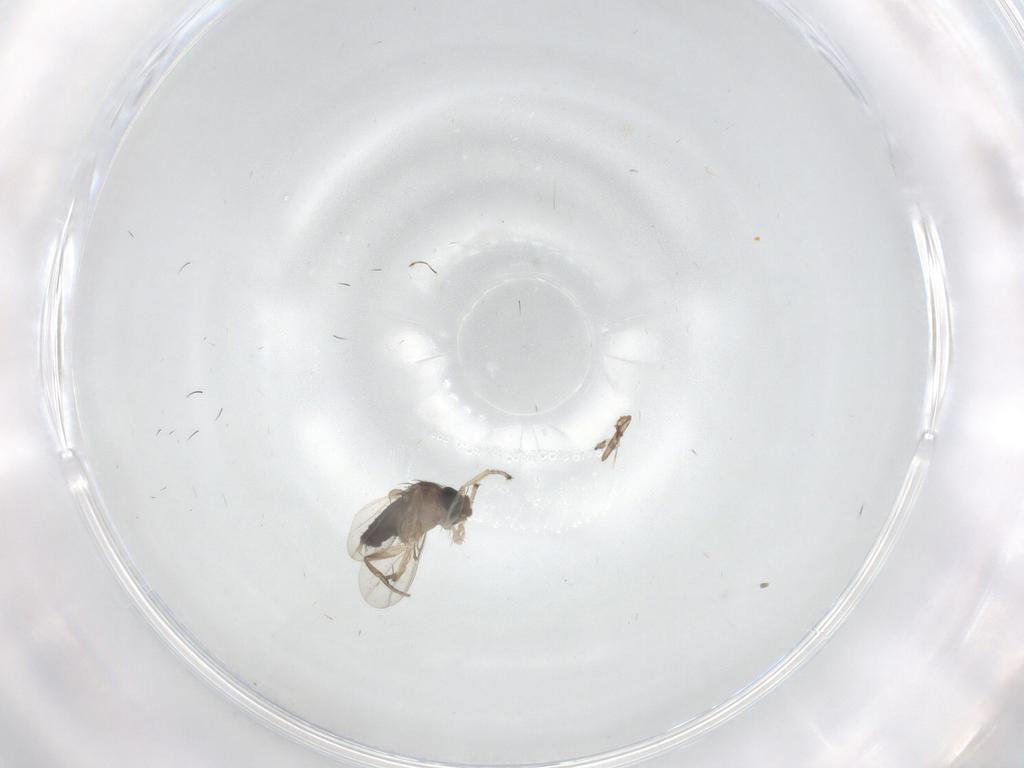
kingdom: Animalia
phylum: Arthropoda
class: Insecta
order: Diptera
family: Phoridae
